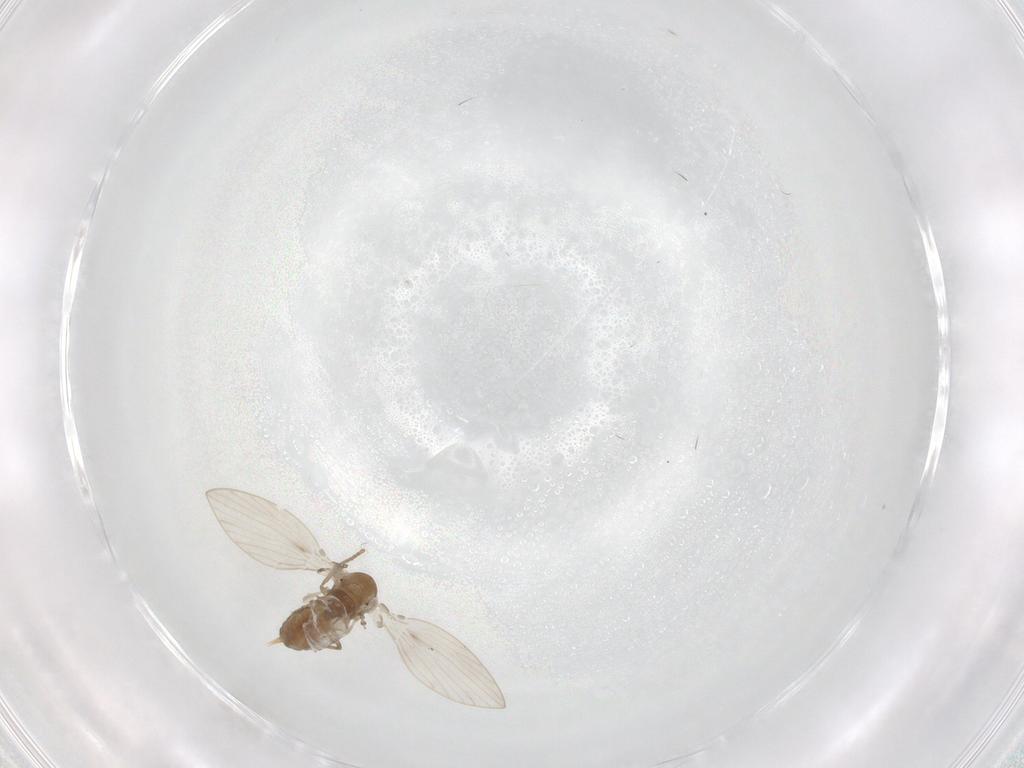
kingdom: Animalia
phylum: Arthropoda
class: Insecta
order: Diptera
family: Psychodidae
